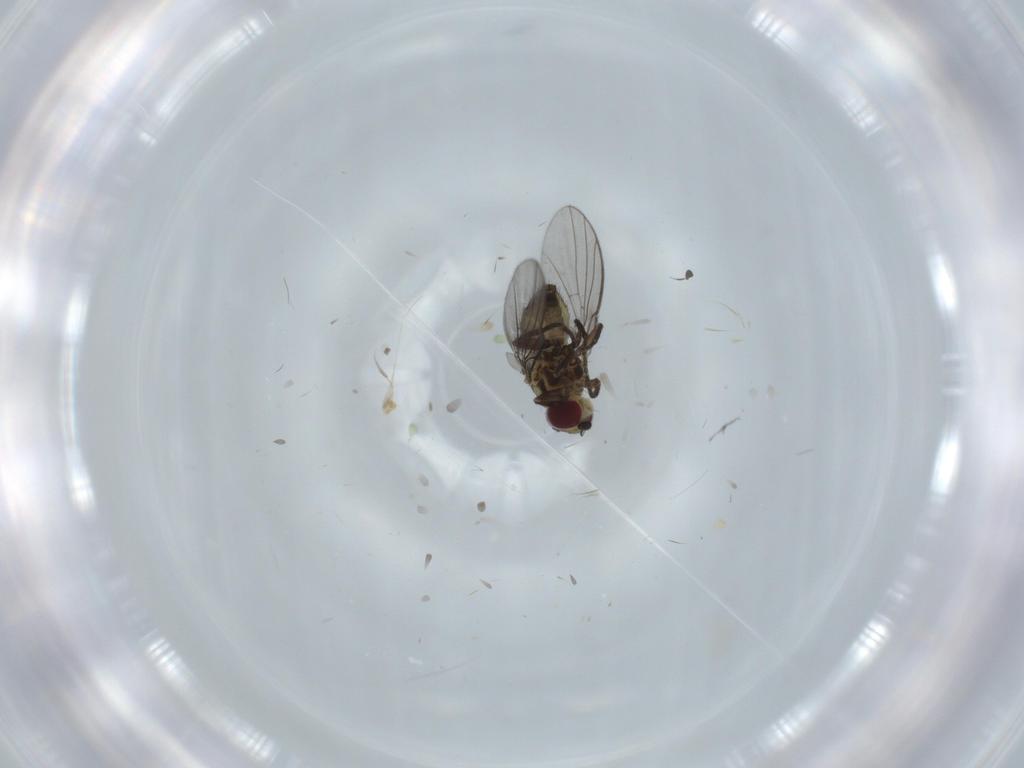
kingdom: Animalia
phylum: Arthropoda
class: Insecta
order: Diptera
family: Agromyzidae
